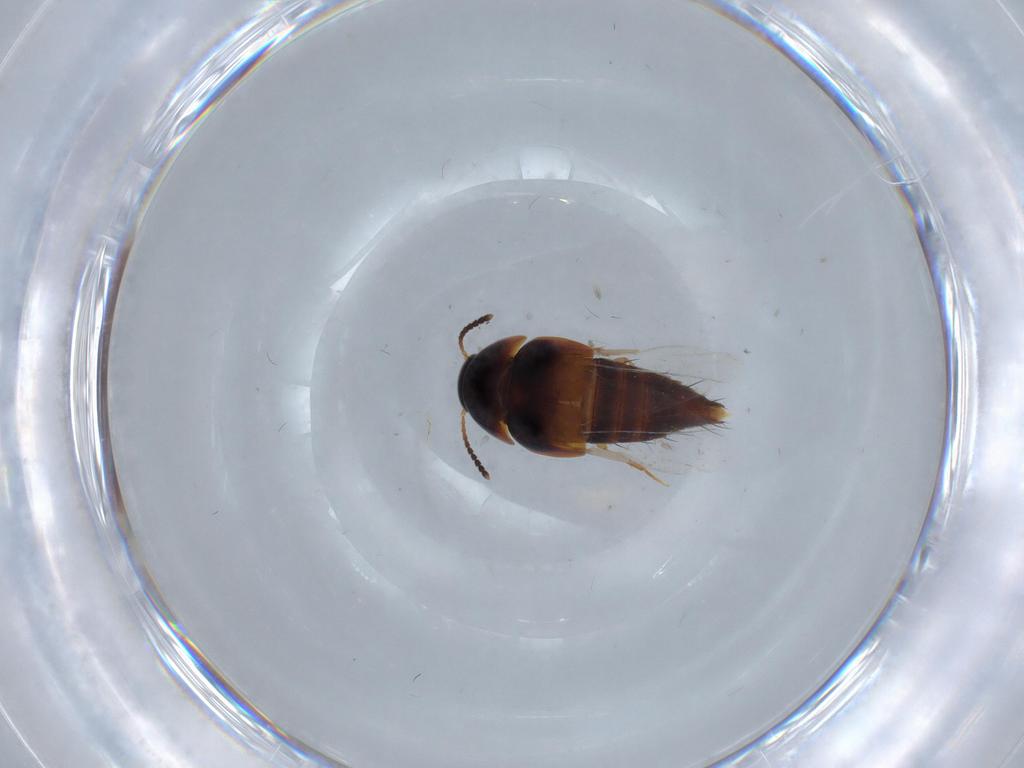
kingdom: Animalia
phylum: Arthropoda
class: Insecta
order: Coleoptera
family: Staphylinidae
